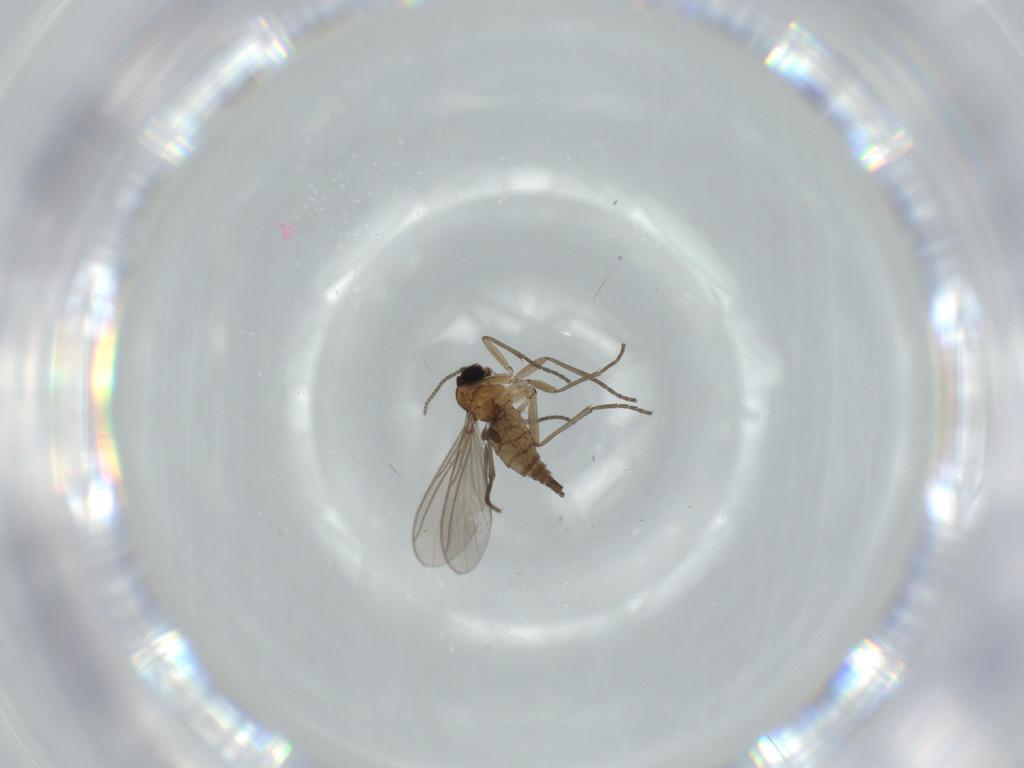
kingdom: Animalia
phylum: Arthropoda
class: Insecta
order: Diptera
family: Sciaridae
